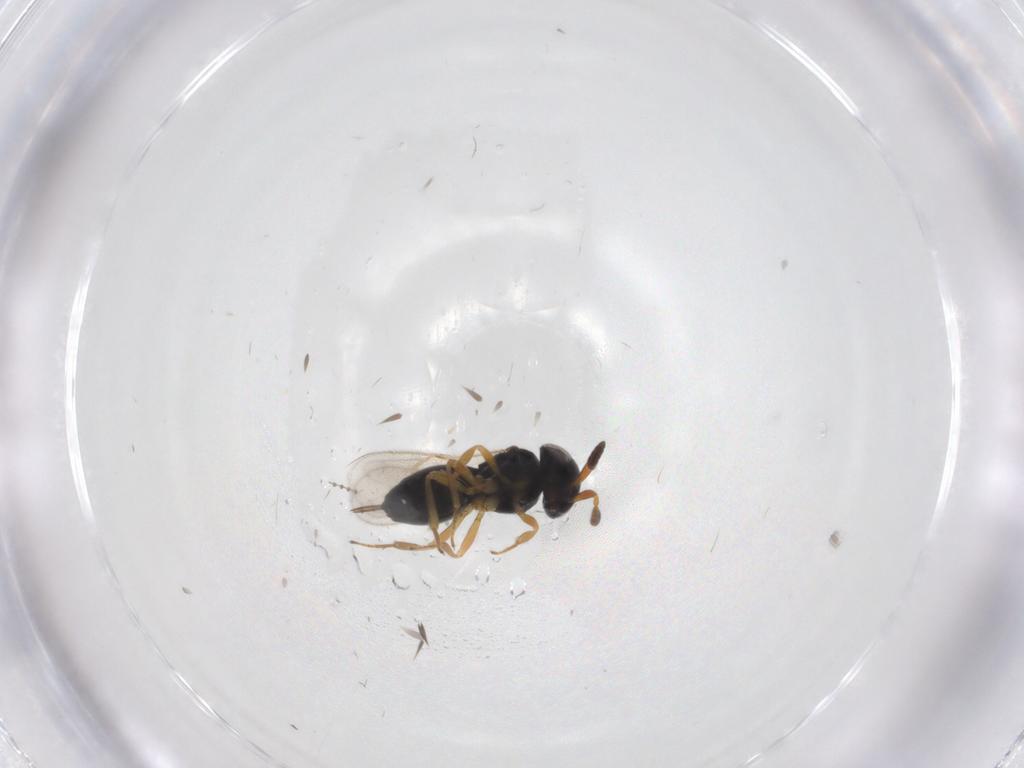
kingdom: Animalia
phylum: Arthropoda
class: Insecta
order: Hymenoptera
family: Scelionidae
